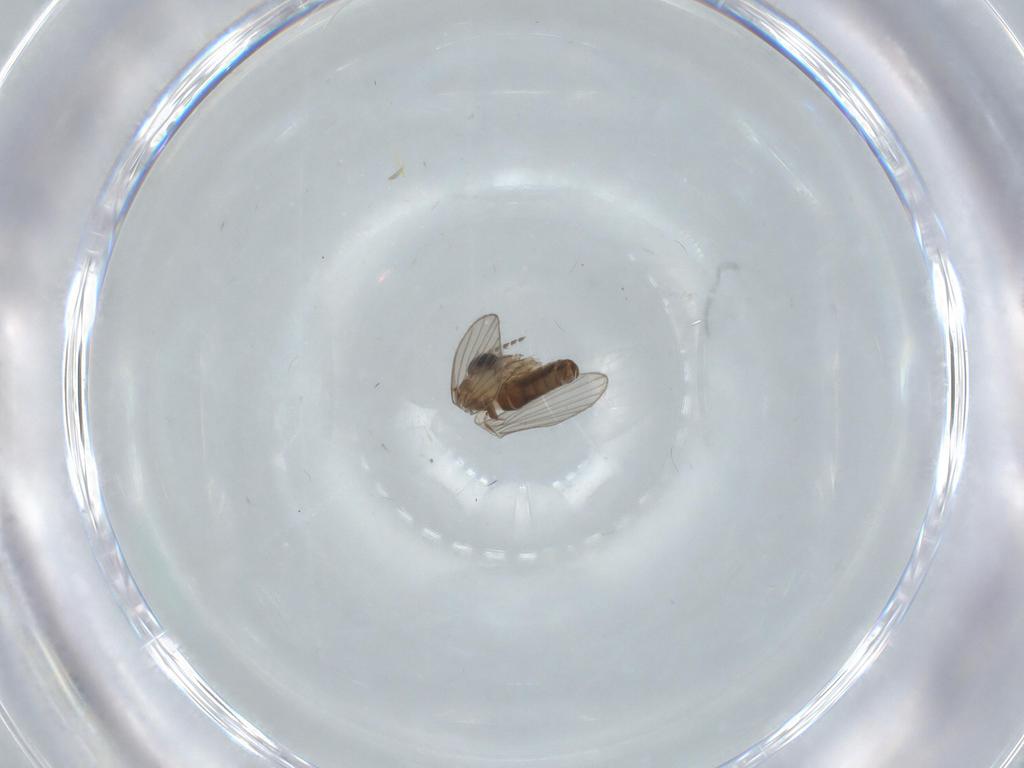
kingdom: Animalia
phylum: Arthropoda
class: Insecta
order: Diptera
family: Psychodidae
